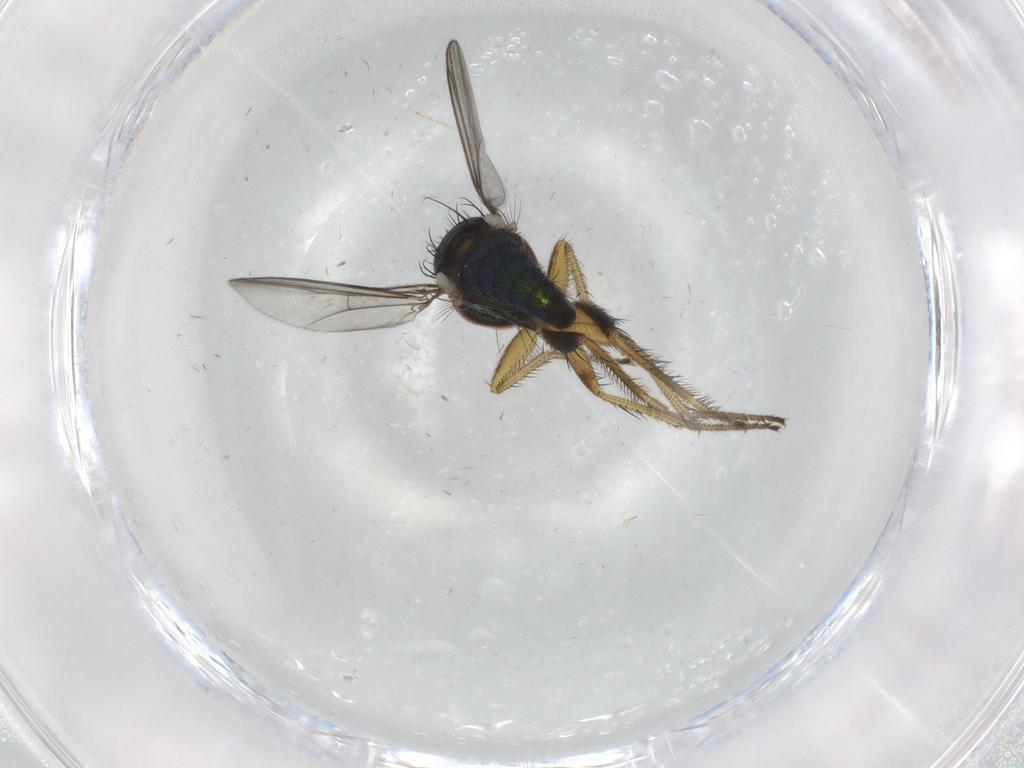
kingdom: Animalia
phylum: Arthropoda
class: Insecta
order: Diptera
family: Dolichopodidae
